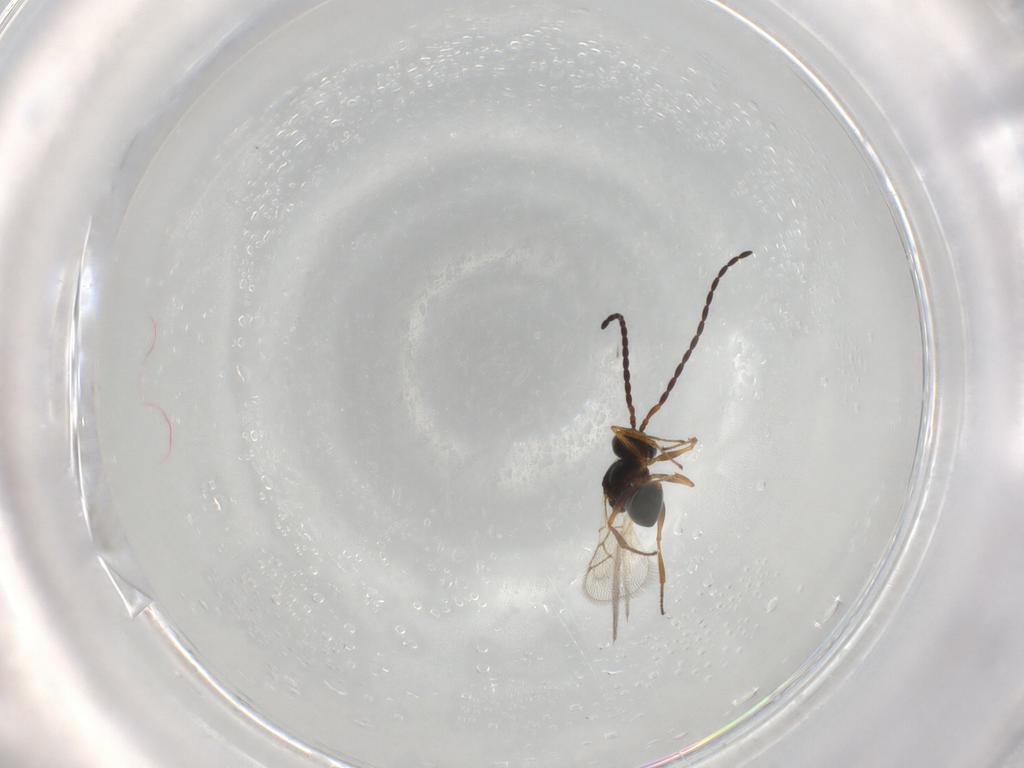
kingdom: Animalia
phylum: Arthropoda
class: Insecta
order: Hymenoptera
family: Figitidae
